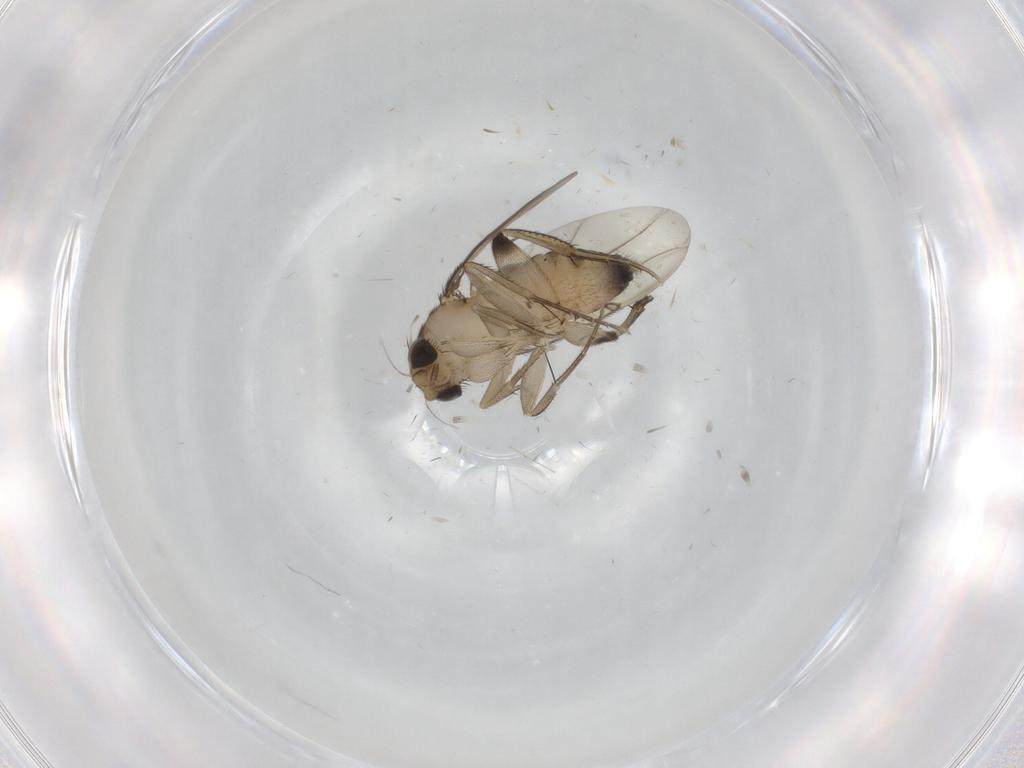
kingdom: Animalia
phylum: Arthropoda
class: Insecta
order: Diptera
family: Phoridae
